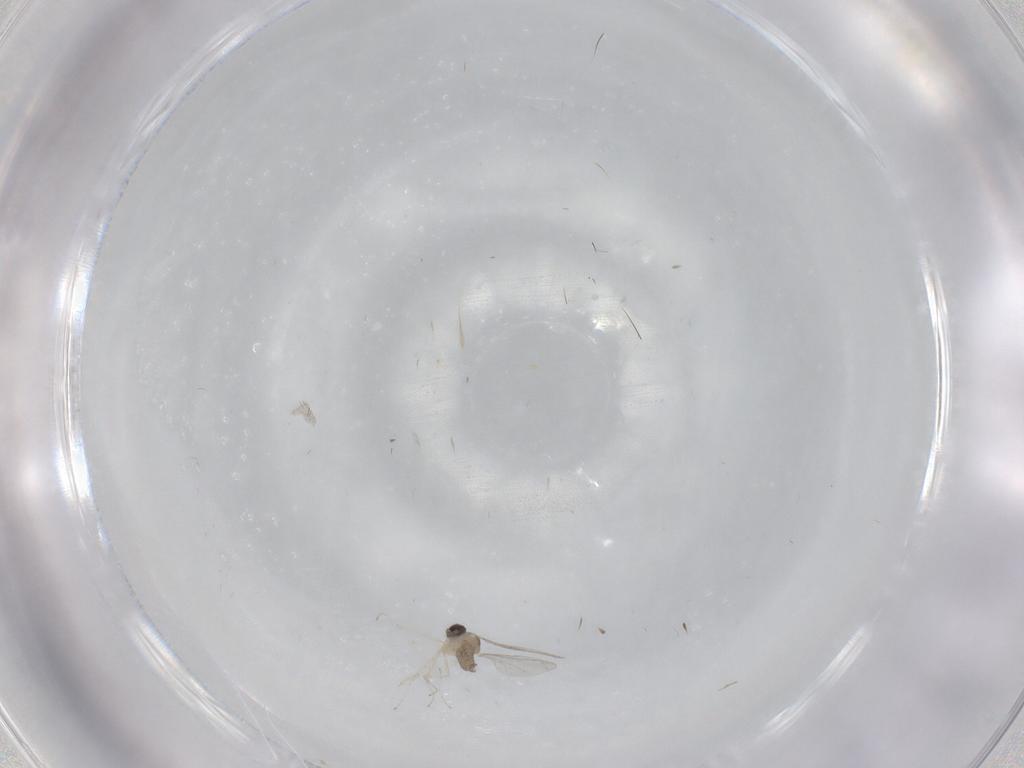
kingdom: Animalia
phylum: Arthropoda
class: Insecta
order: Diptera
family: Cecidomyiidae
